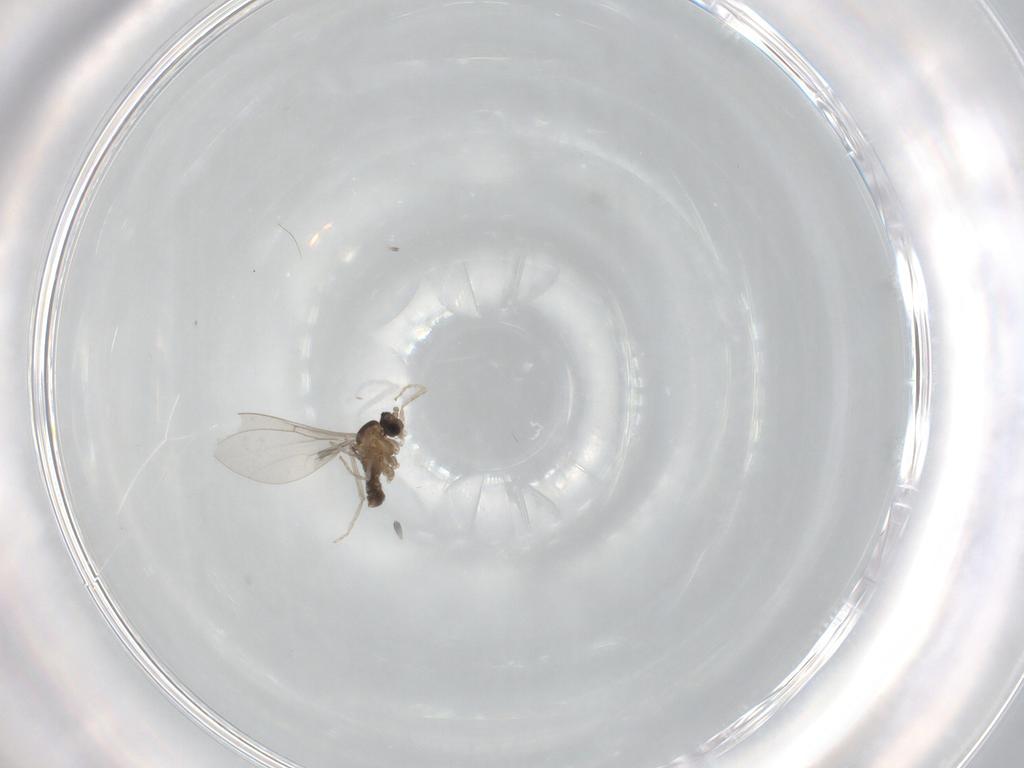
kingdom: Animalia
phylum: Arthropoda
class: Insecta
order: Diptera
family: Cecidomyiidae
